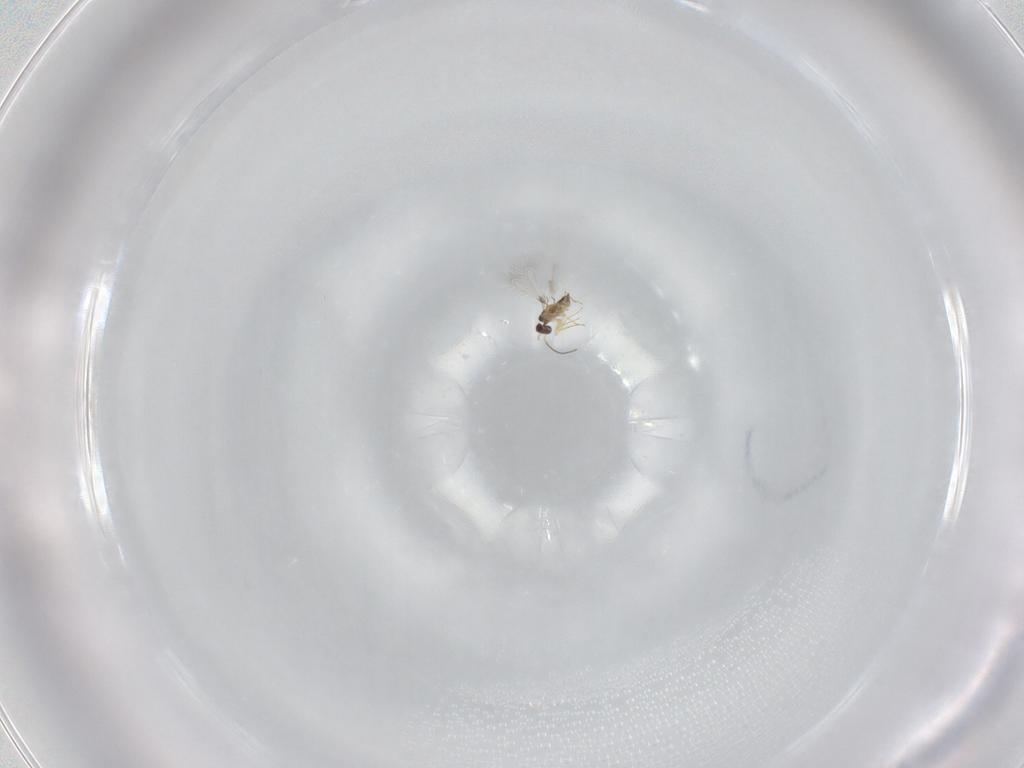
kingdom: Animalia
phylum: Arthropoda
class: Insecta
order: Hymenoptera
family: Mymaridae
